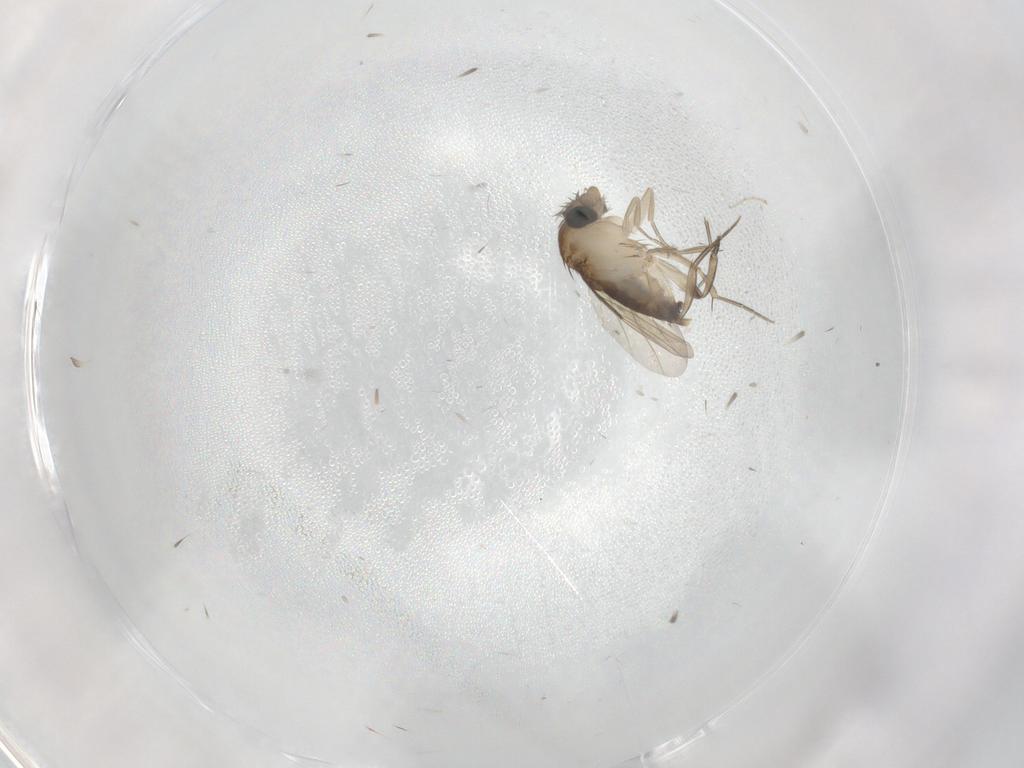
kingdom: Animalia
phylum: Arthropoda
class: Insecta
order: Diptera
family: Phoridae
